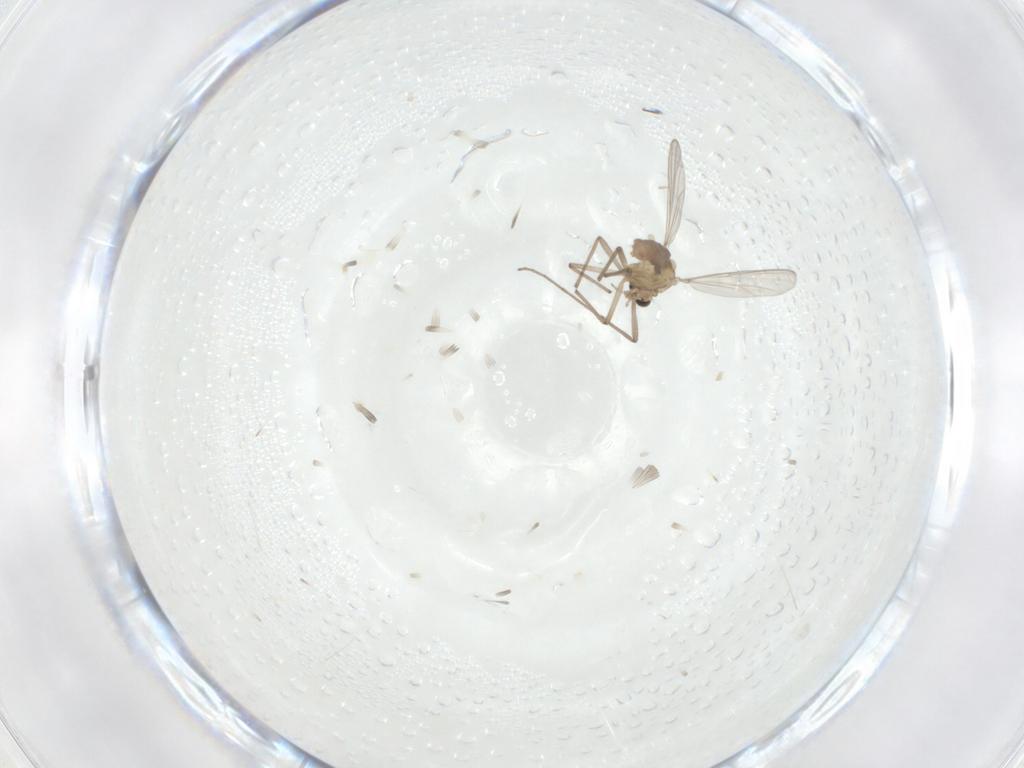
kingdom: Animalia
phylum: Arthropoda
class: Insecta
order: Diptera
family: Chironomidae
